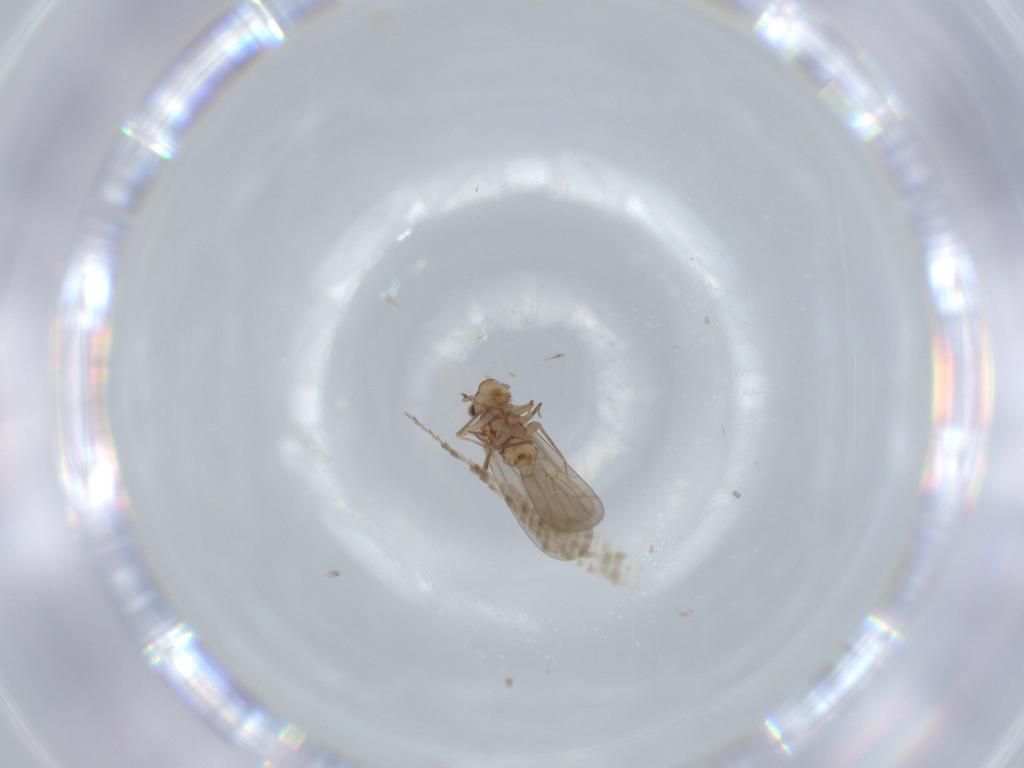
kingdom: Animalia
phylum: Arthropoda
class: Insecta
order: Psocodea
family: Lepidopsocidae
